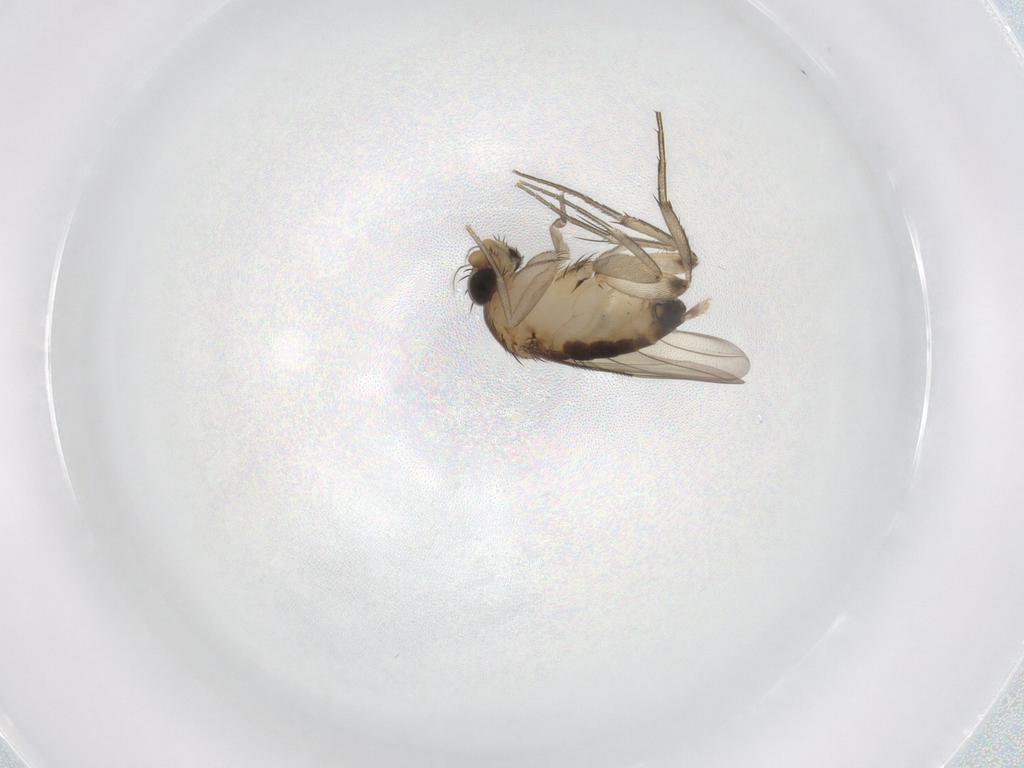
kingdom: Animalia
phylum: Arthropoda
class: Insecta
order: Diptera
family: Phoridae
